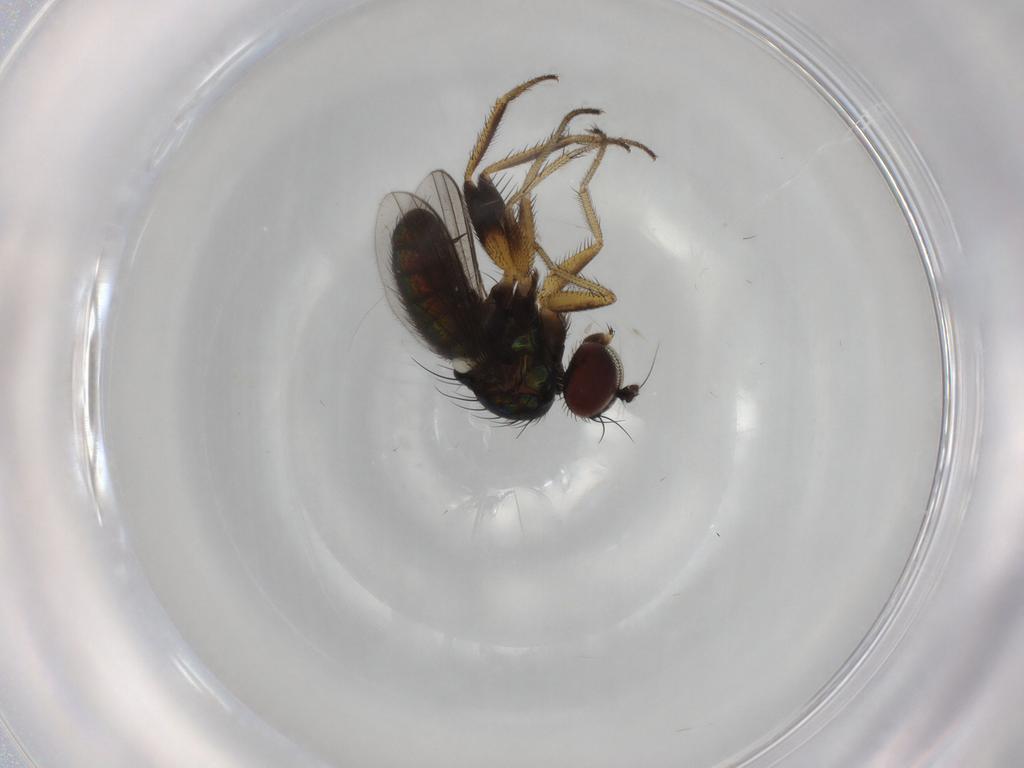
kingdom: Animalia
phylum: Arthropoda
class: Insecta
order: Diptera
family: Dolichopodidae
